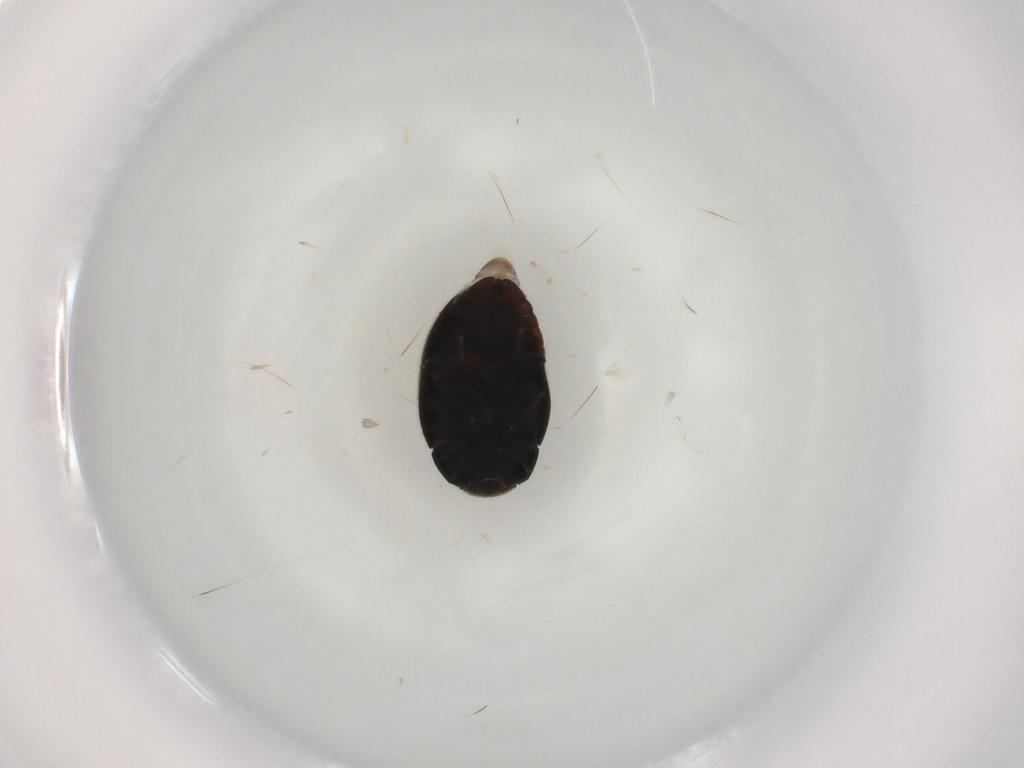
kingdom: Animalia
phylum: Arthropoda
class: Insecta
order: Coleoptera
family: Limnichidae
